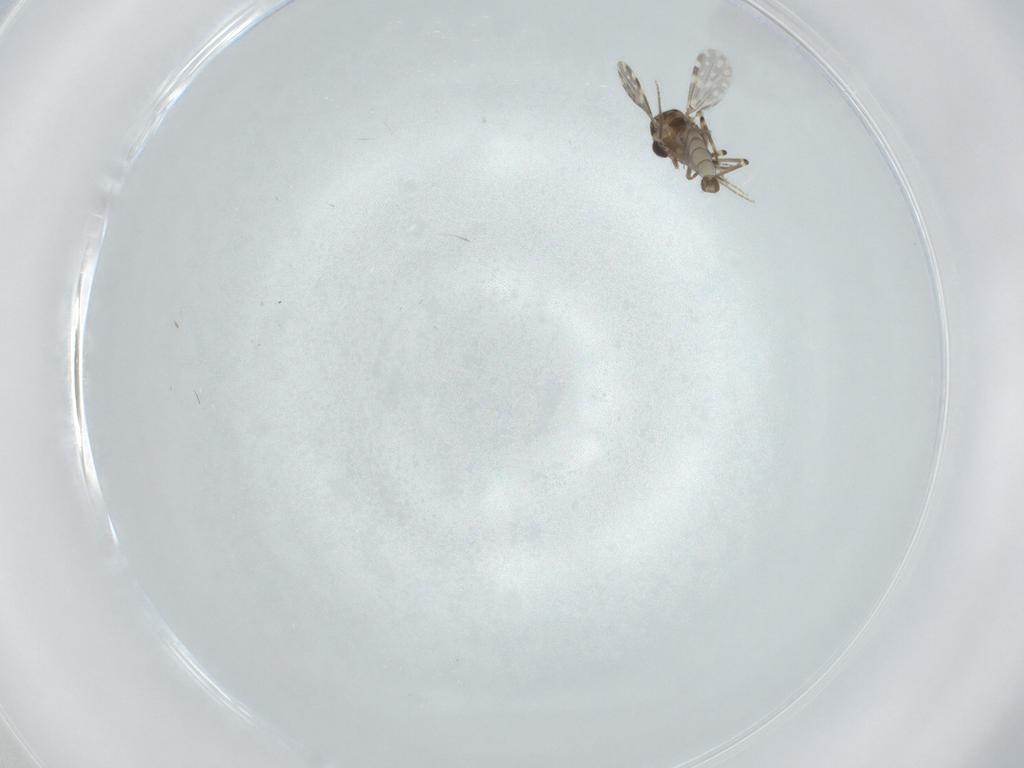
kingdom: Animalia
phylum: Arthropoda
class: Insecta
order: Diptera
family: Ceratopogonidae
